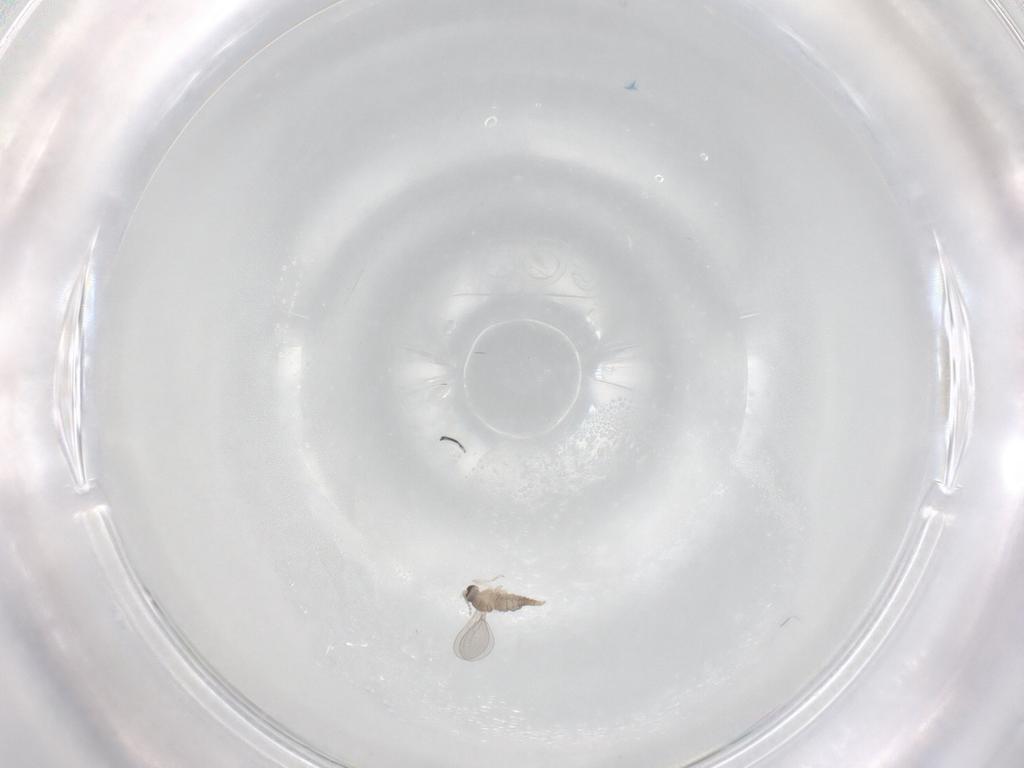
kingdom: Animalia
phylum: Arthropoda
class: Insecta
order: Diptera
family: Cecidomyiidae
